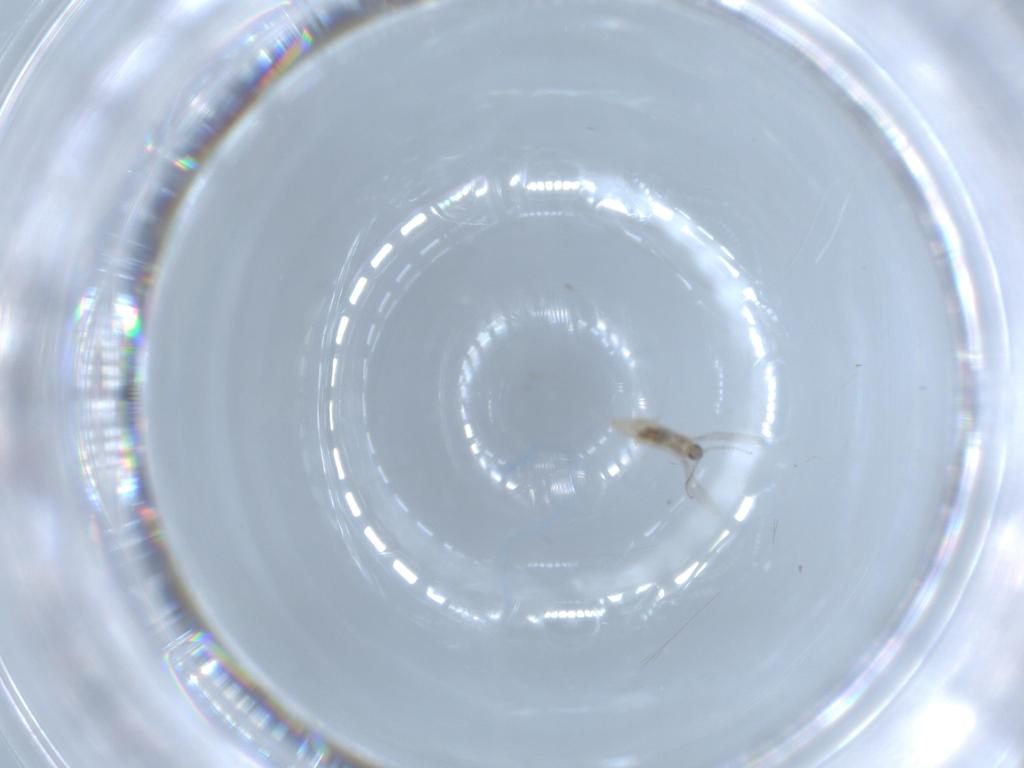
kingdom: Animalia
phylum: Arthropoda
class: Insecta
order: Diptera
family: Cecidomyiidae
